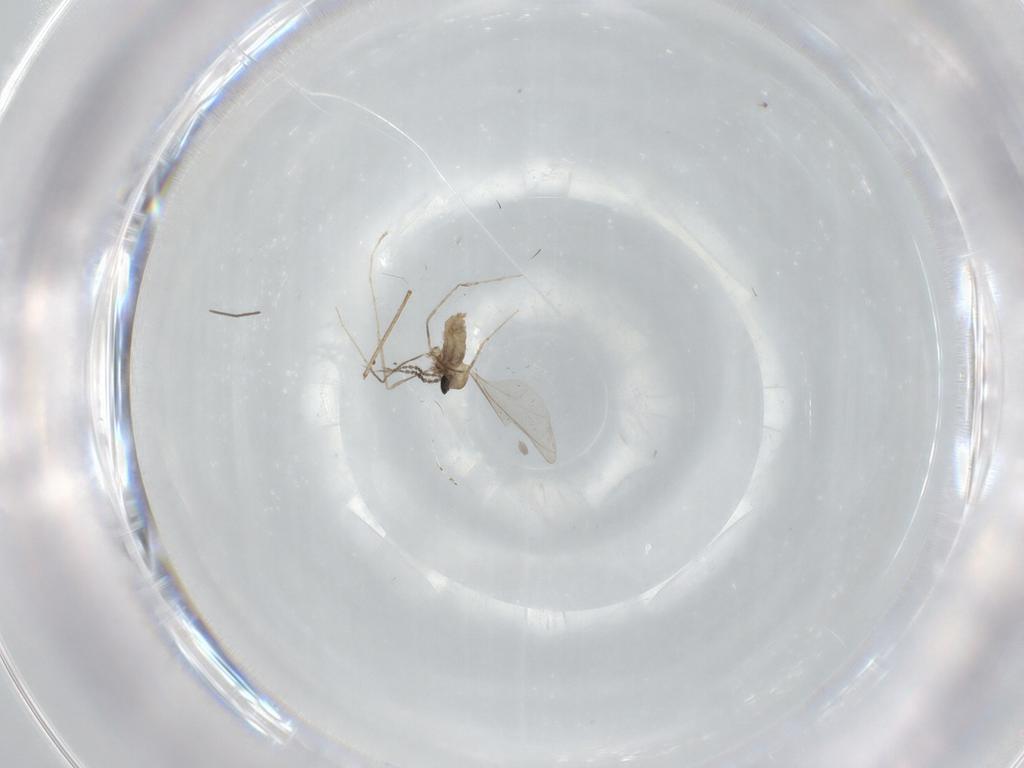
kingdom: Animalia
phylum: Arthropoda
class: Insecta
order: Diptera
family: Cecidomyiidae
